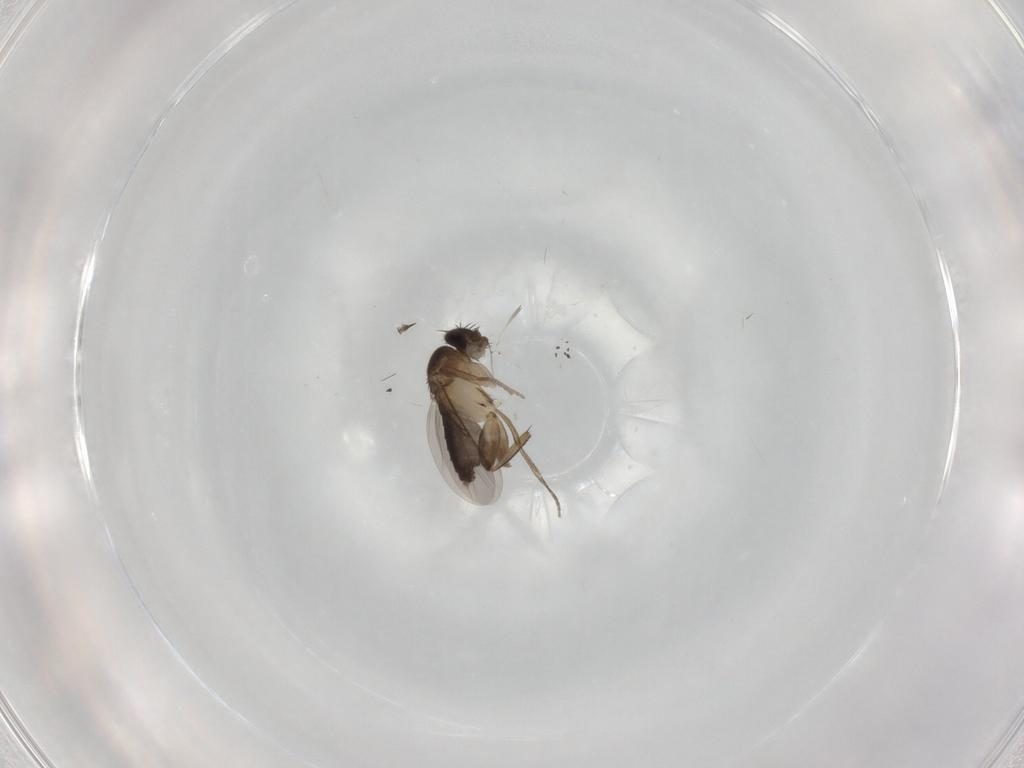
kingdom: Animalia
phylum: Arthropoda
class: Insecta
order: Diptera
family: Phoridae
